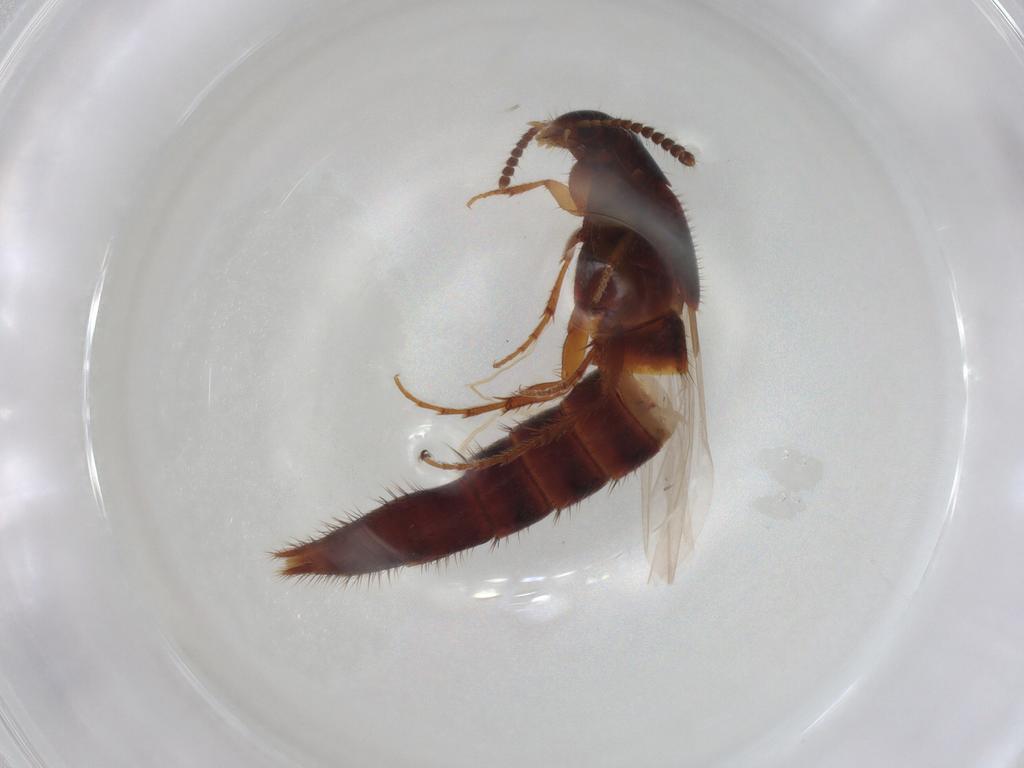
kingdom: Animalia
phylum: Arthropoda
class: Insecta
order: Coleoptera
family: Staphylinidae
